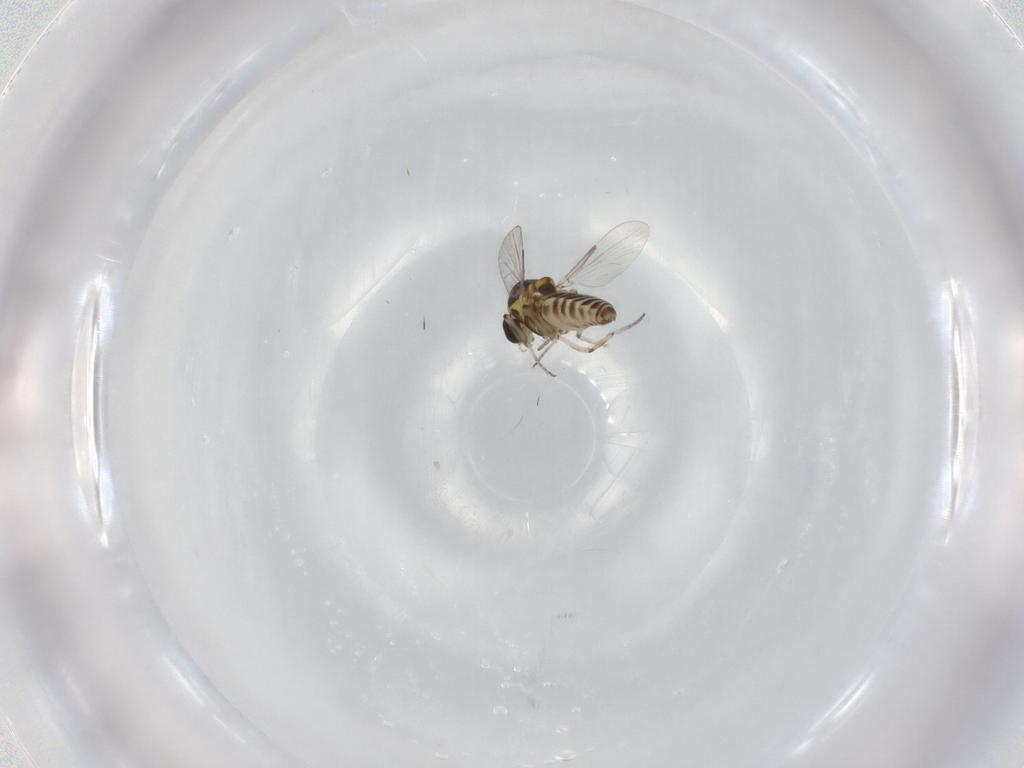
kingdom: Animalia
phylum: Arthropoda
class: Insecta
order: Diptera
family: Ceratopogonidae
